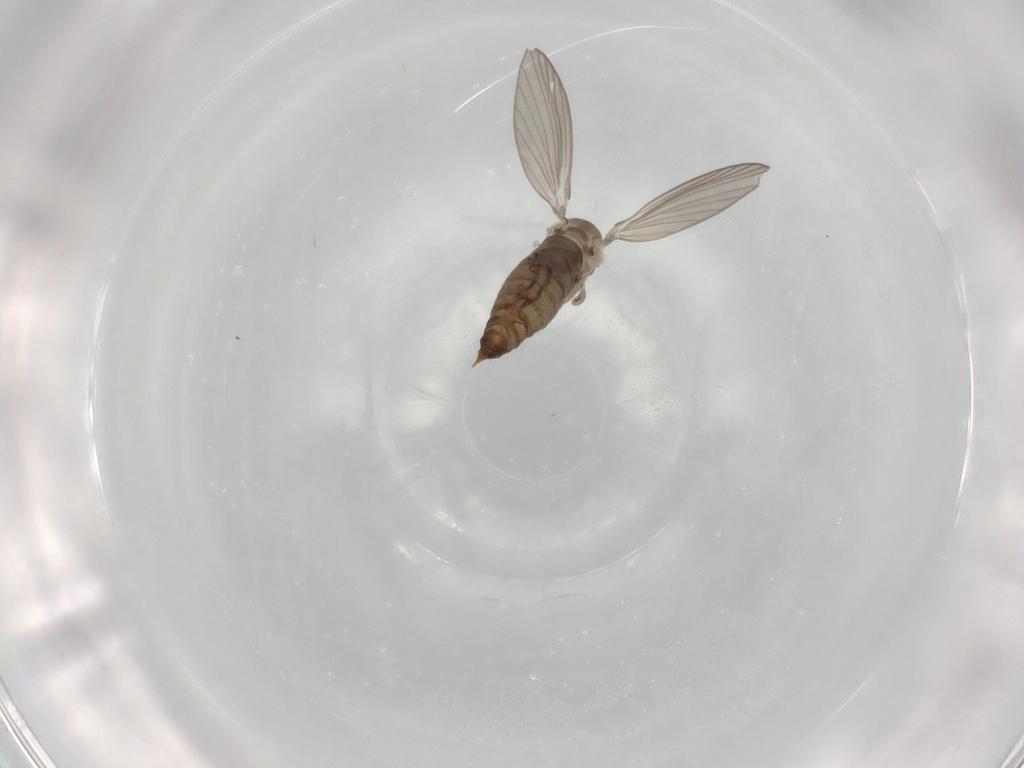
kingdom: Animalia
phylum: Arthropoda
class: Insecta
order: Diptera
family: Psychodidae
